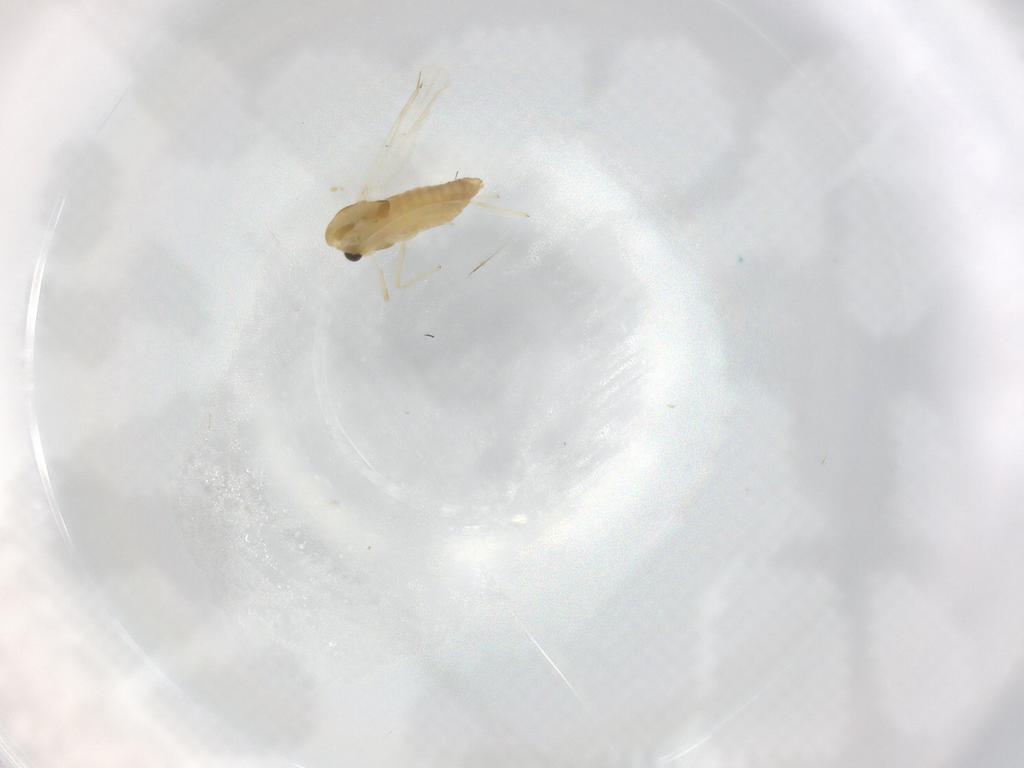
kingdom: Animalia
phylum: Arthropoda
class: Insecta
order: Diptera
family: Chironomidae
